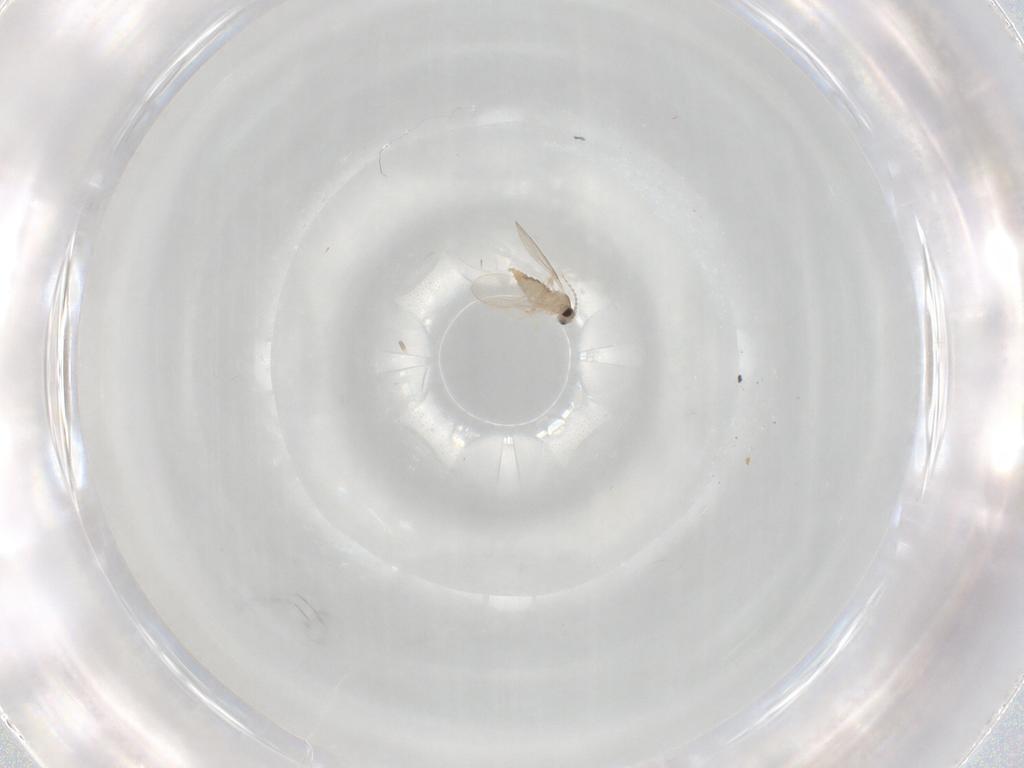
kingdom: Animalia
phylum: Arthropoda
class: Insecta
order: Diptera
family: Cecidomyiidae
